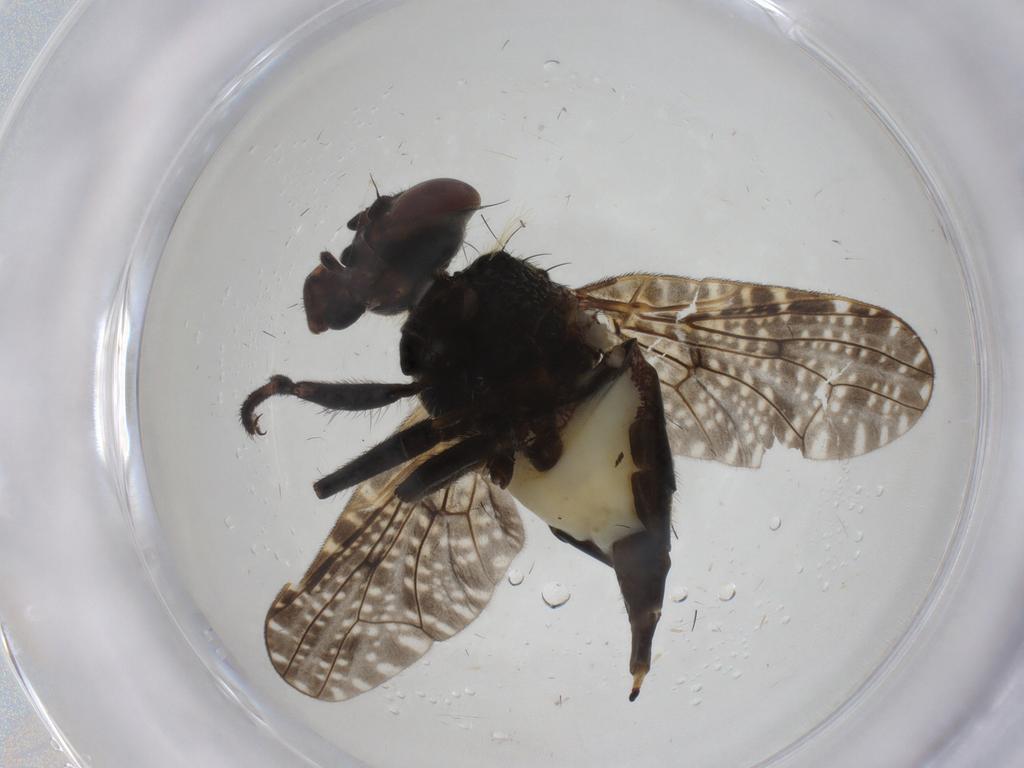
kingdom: Animalia
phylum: Arthropoda
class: Insecta
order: Diptera
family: Platystomatidae
